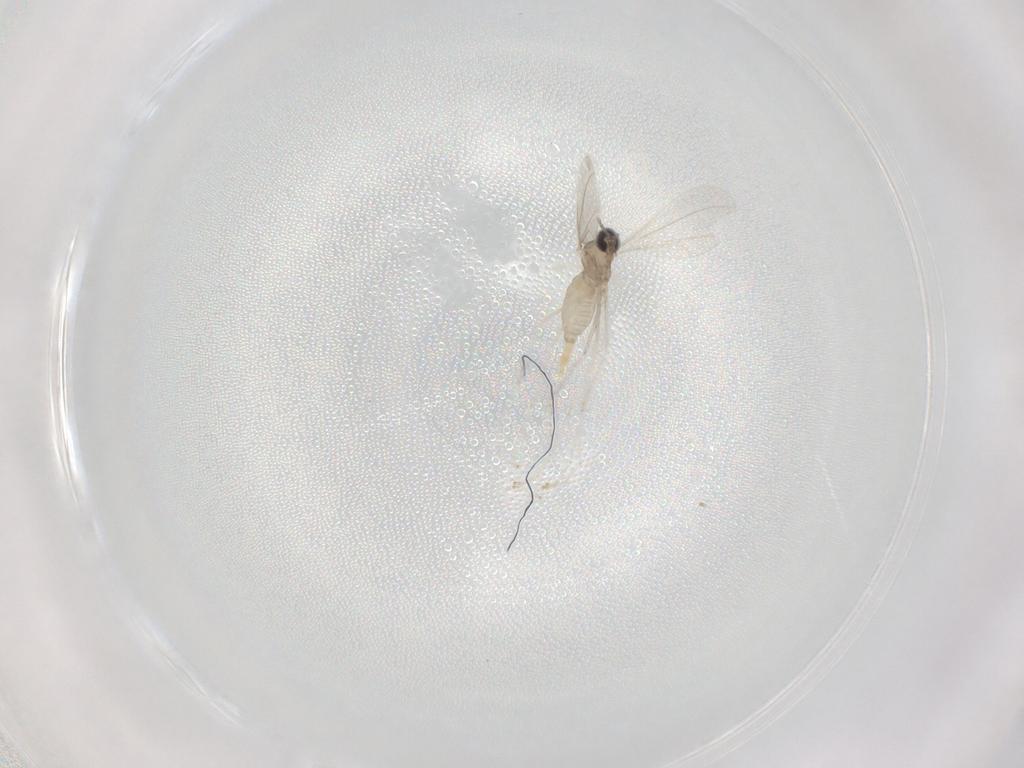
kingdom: Animalia
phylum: Arthropoda
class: Insecta
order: Diptera
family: Cecidomyiidae
